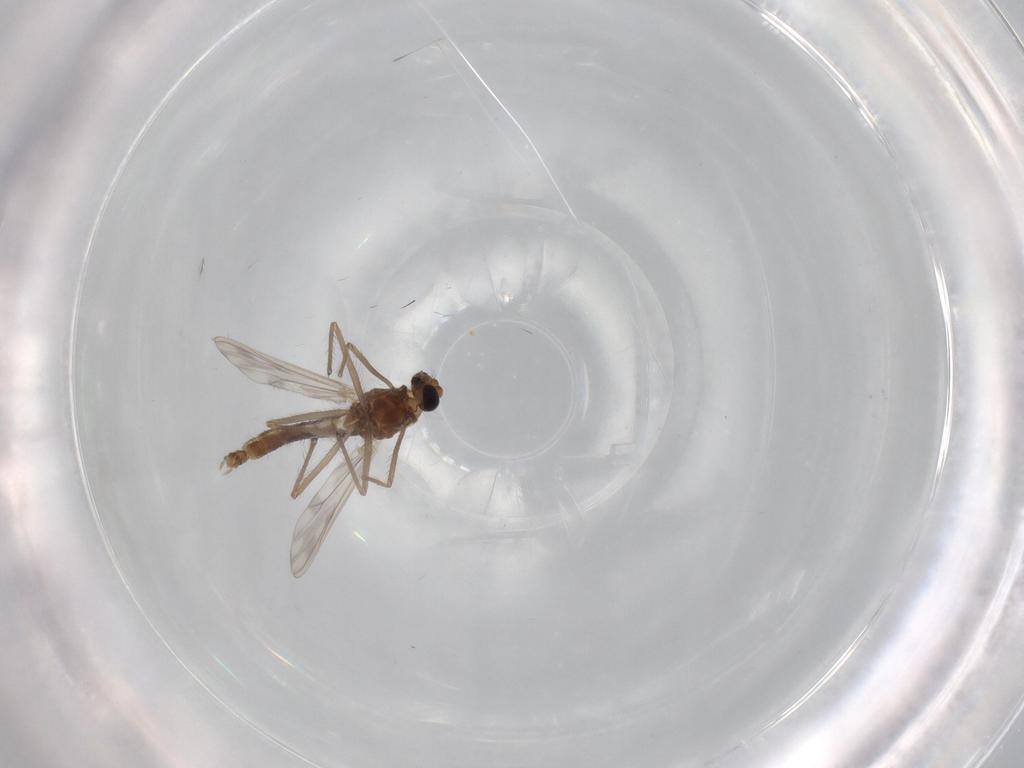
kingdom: Animalia
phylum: Arthropoda
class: Insecta
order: Diptera
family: Chironomidae
